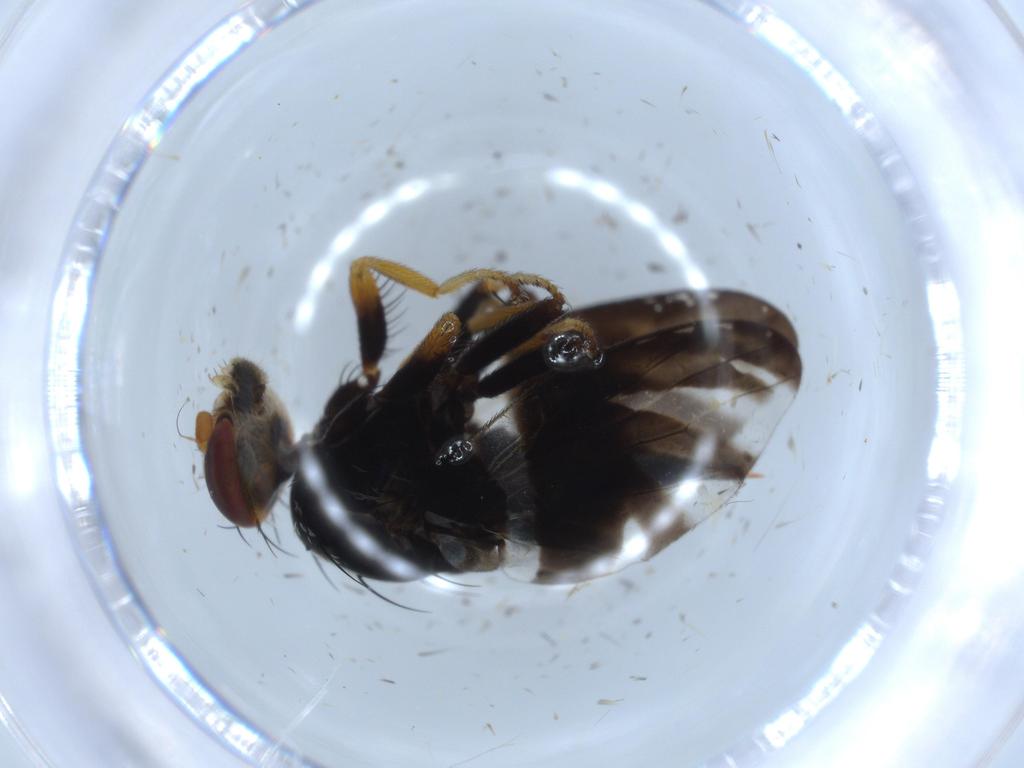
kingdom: Animalia
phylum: Arthropoda
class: Insecta
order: Diptera
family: Tephritidae
